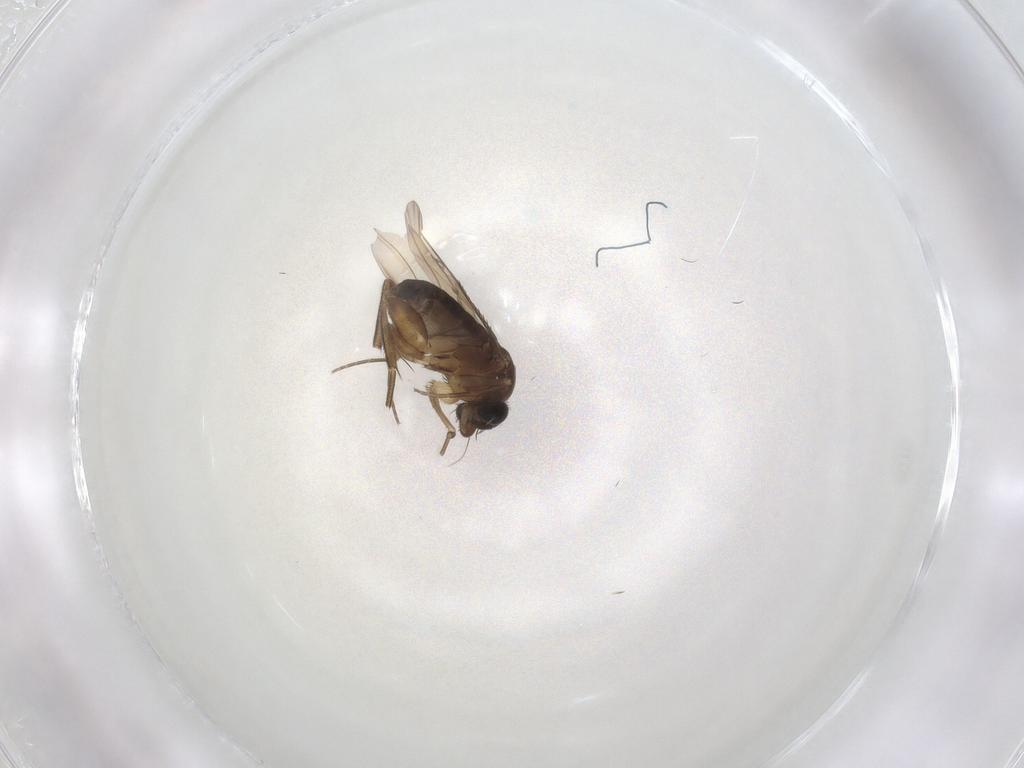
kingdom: Animalia
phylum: Arthropoda
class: Insecta
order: Diptera
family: Phoridae
